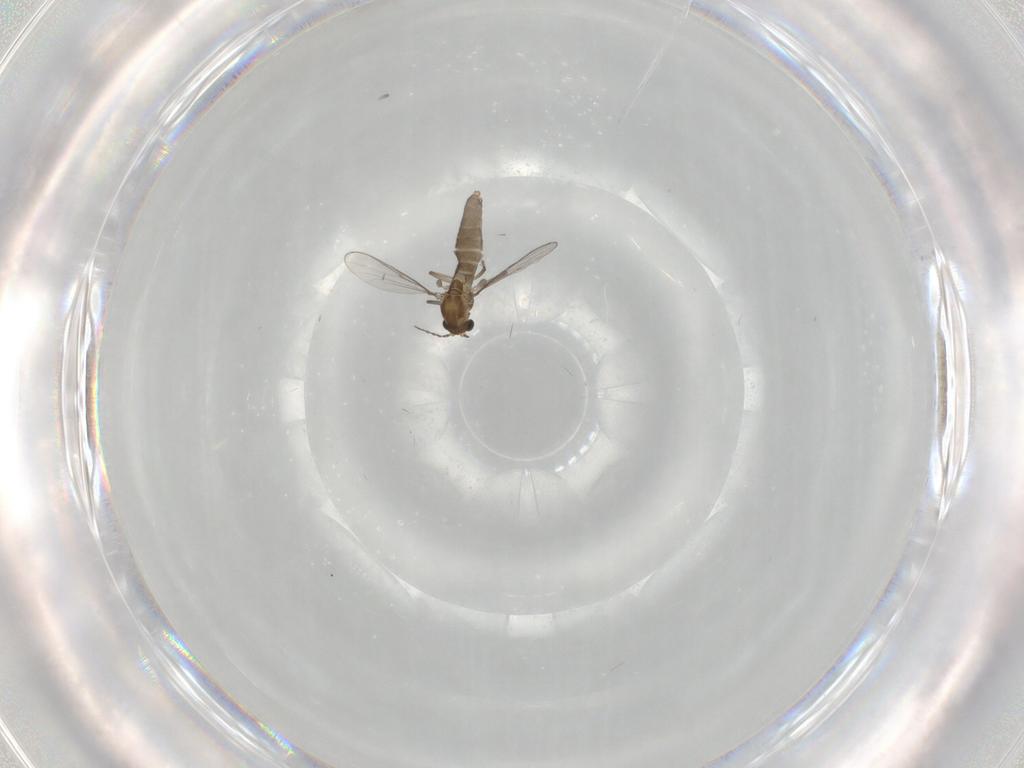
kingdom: Animalia
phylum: Arthropoda
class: Insecta
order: Diptera
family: Chironomidae
